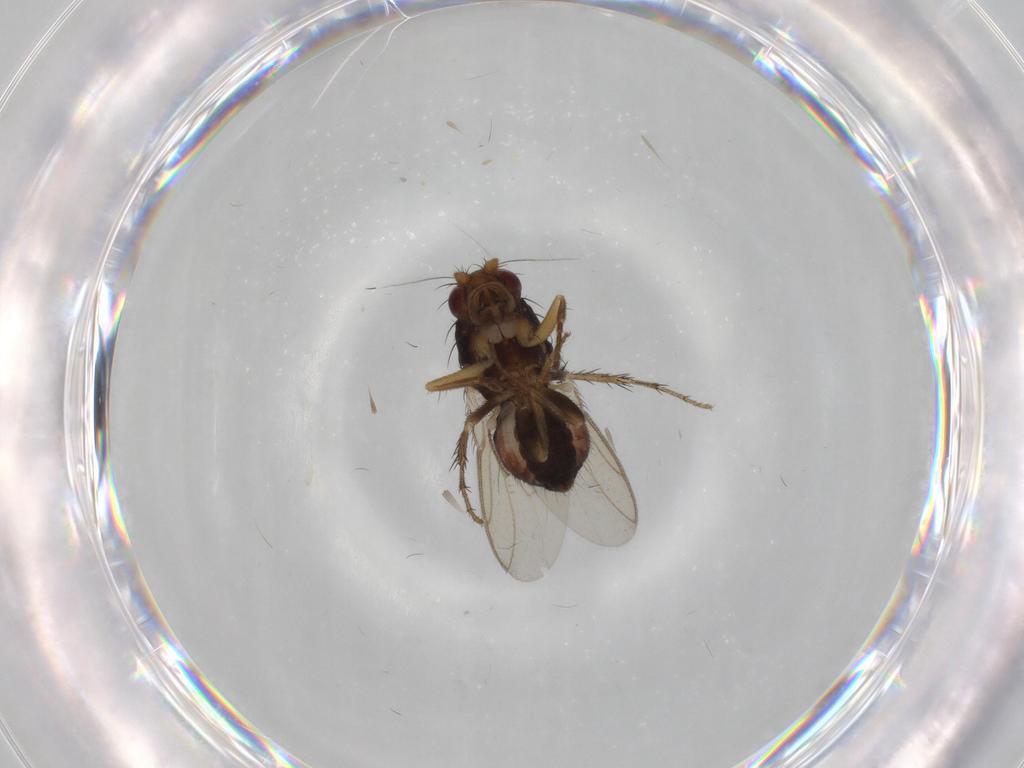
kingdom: Animalia
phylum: Arthropoda
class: Insecta
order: Diptera
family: Sphaeroceridae
